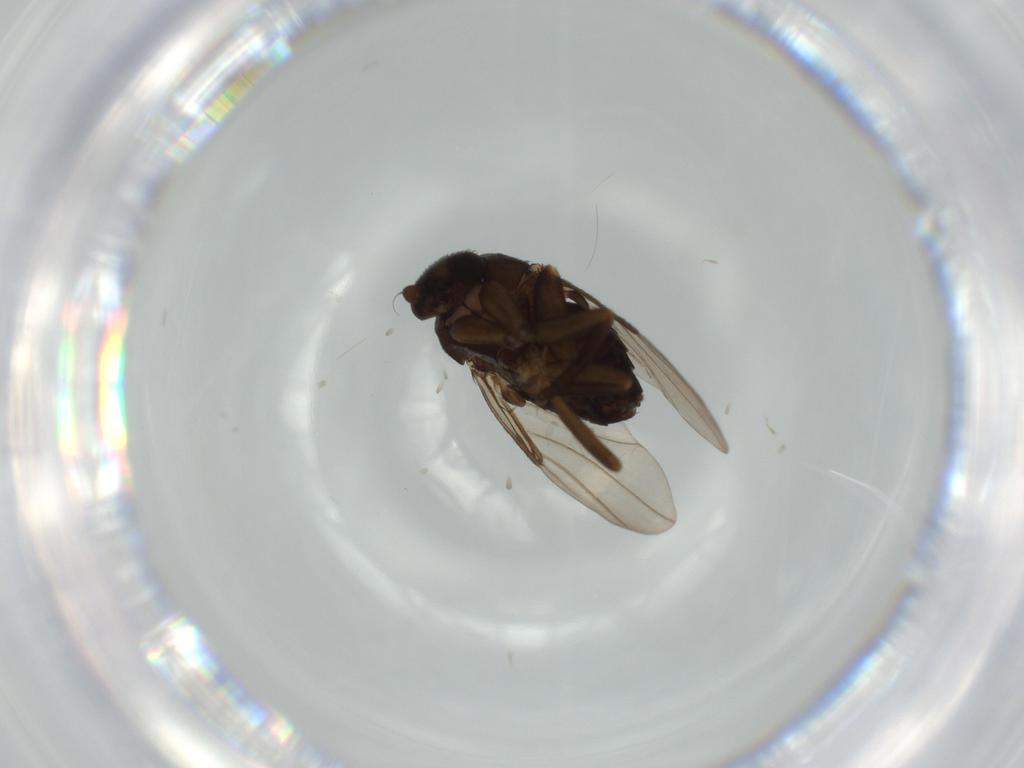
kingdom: Animalia
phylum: Arthropoda
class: Insecta
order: Diptera
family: Phoridae
